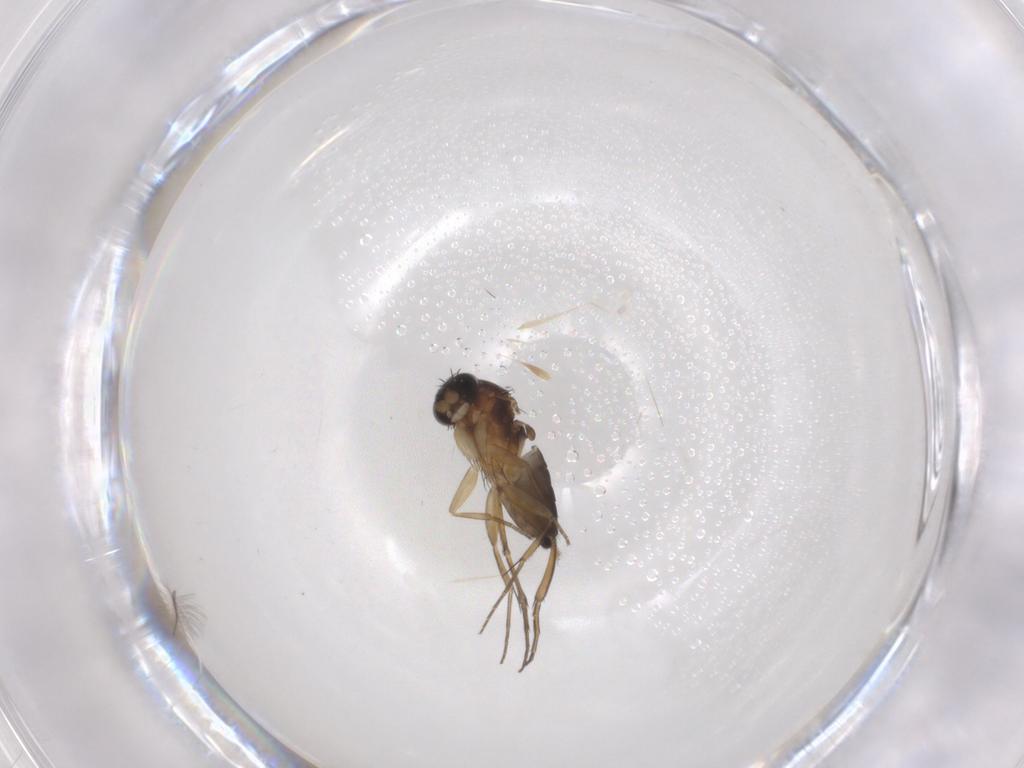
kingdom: Animalia
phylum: Arthropoda
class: Insecta
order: Diptera
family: Phoridae
